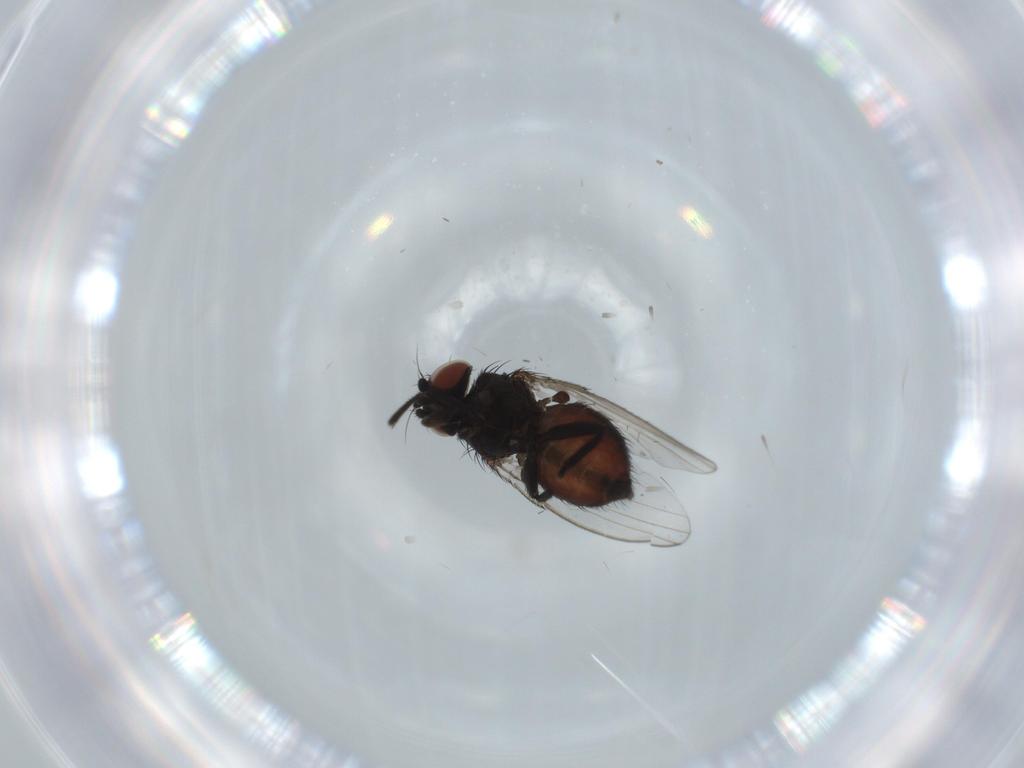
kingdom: Animalia
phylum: Arthropoda
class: Insecta
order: Diptera
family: Milichiidae
